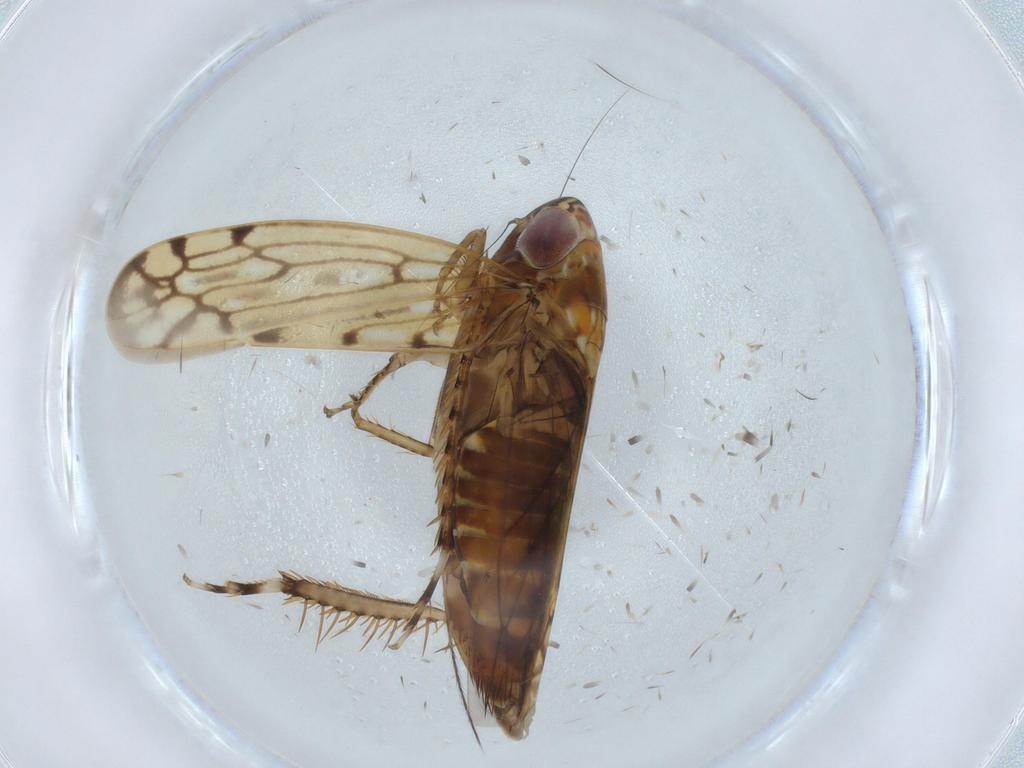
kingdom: Animalia
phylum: Arthropoda
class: Insecta
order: Hemiptera
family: Cicadellidae
